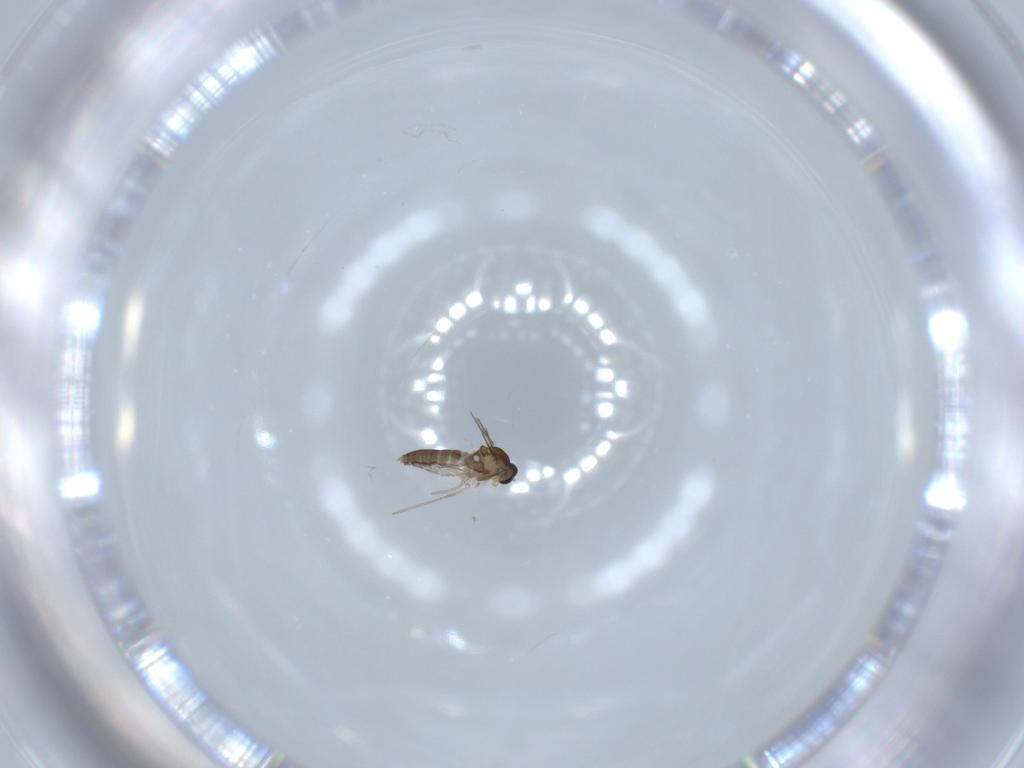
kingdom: Animalia
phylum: Arthropoda
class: Insecta
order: Diptera
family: Cecidomyiidae
